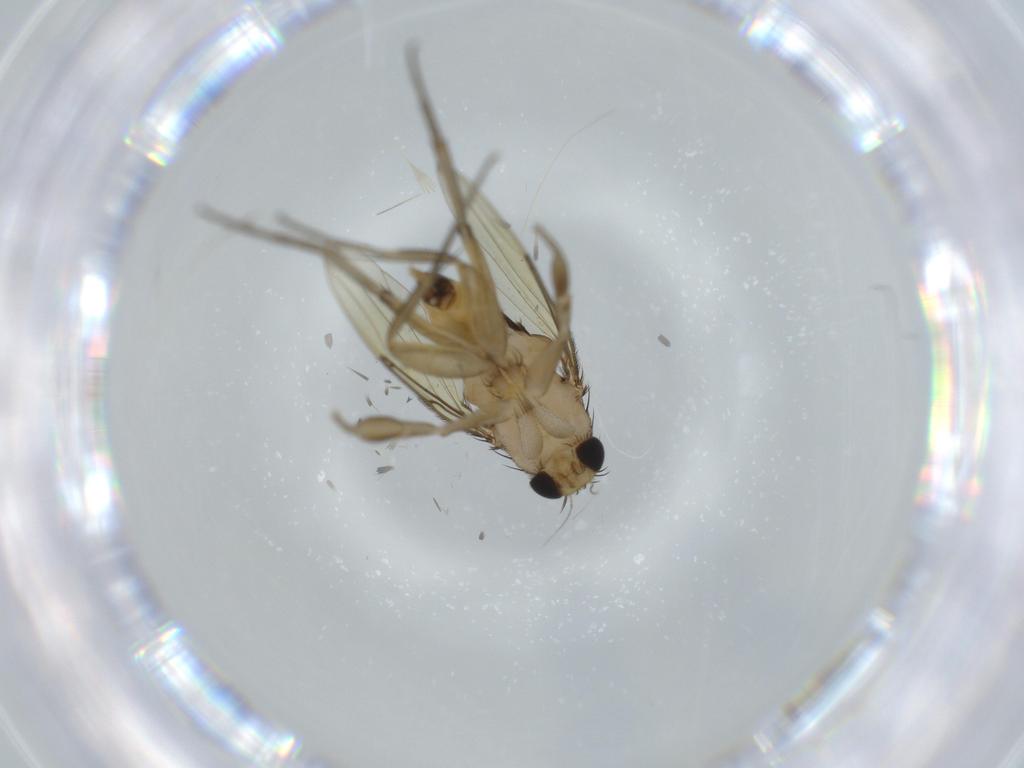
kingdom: Animalia
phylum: Arthropoda
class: Insecta
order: Diptera
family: Phoridae
